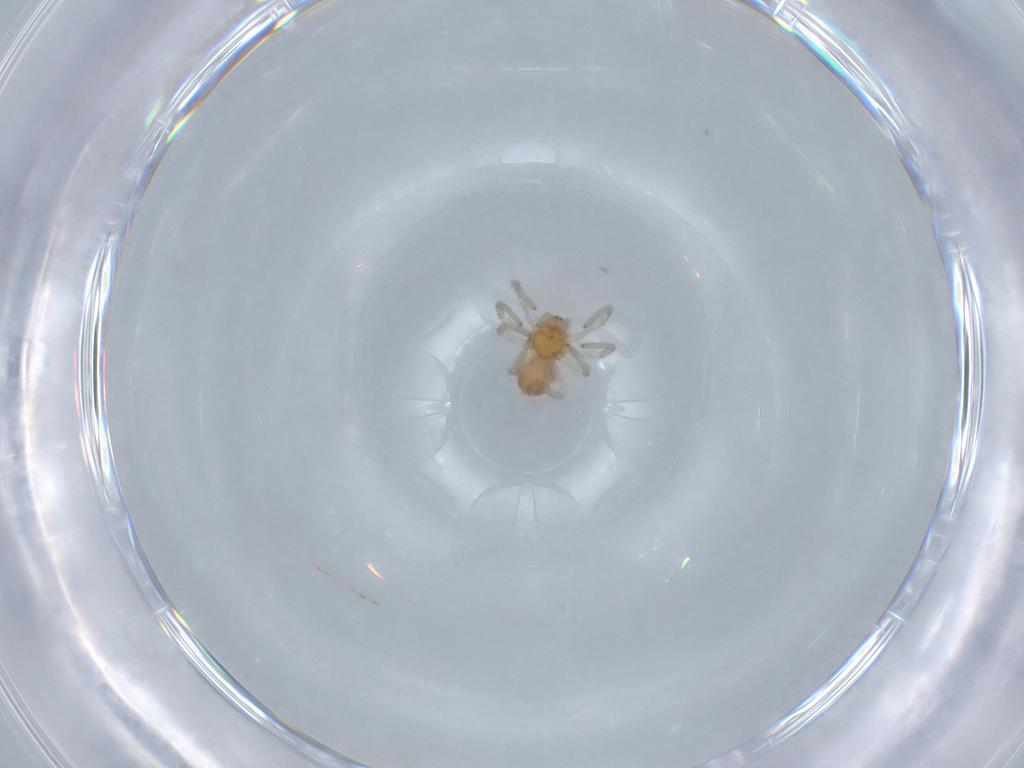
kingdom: Animalia
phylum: Arthropoda
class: Arachnida
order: Araneae
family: Dictynidae
